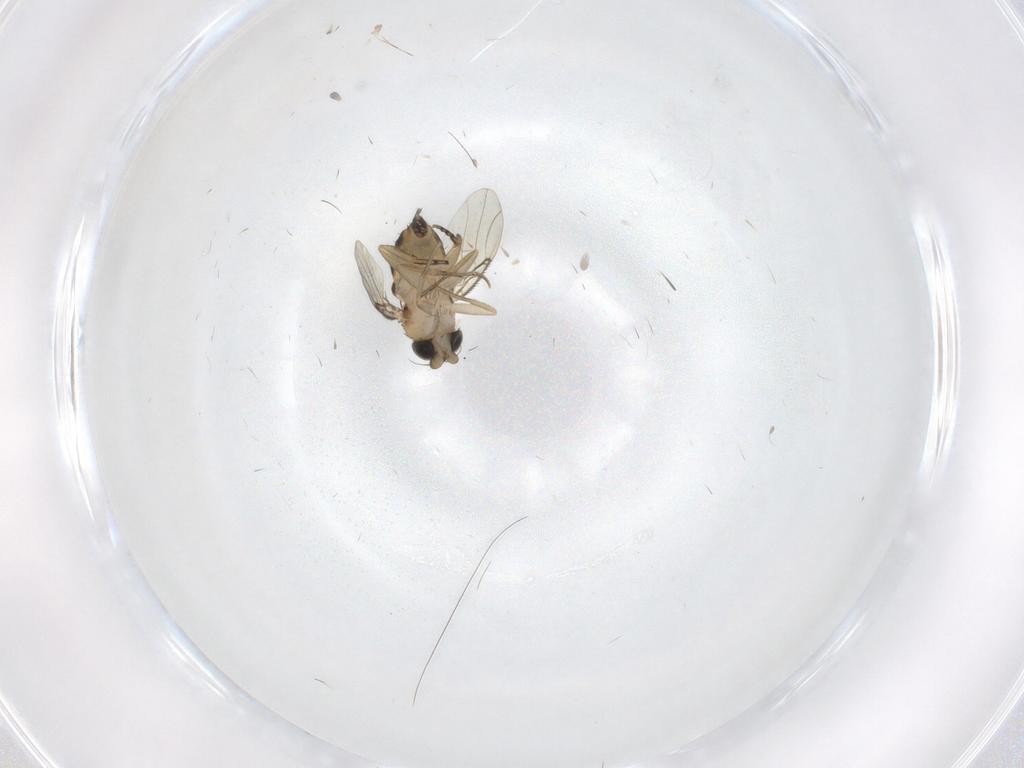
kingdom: Animalia
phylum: Arthropoda
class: Insecta
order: Diptera
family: Phoridae
